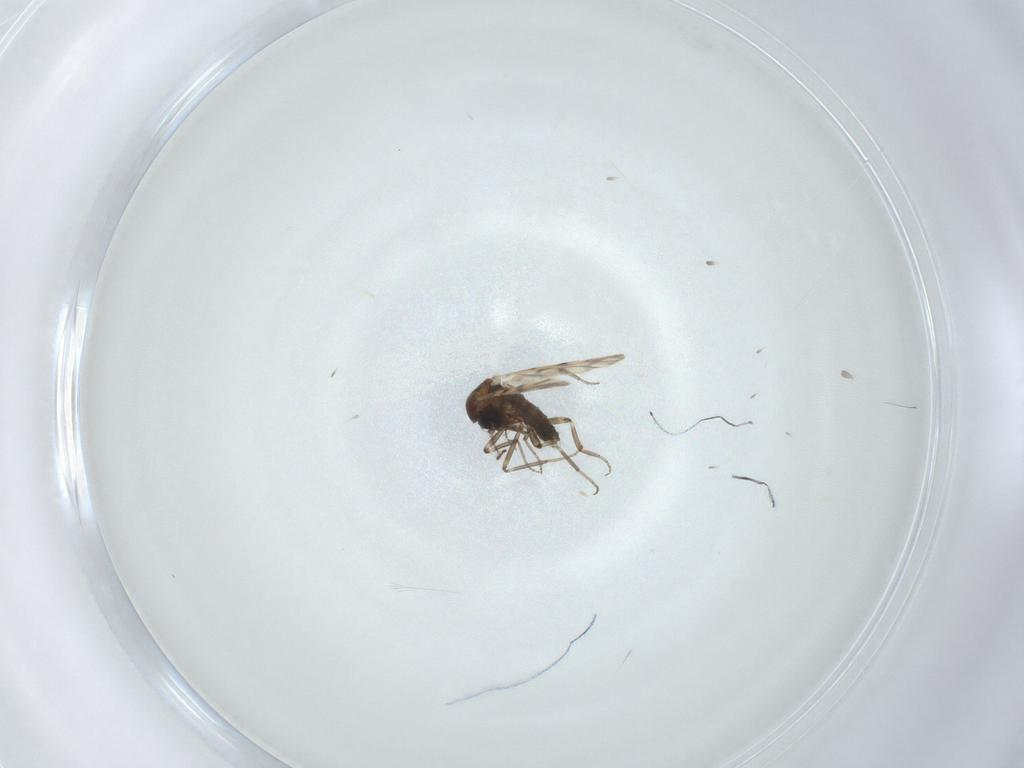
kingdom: Animalia
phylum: Arthropoda
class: Insecta
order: Diptera
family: Ceratopogonidae
